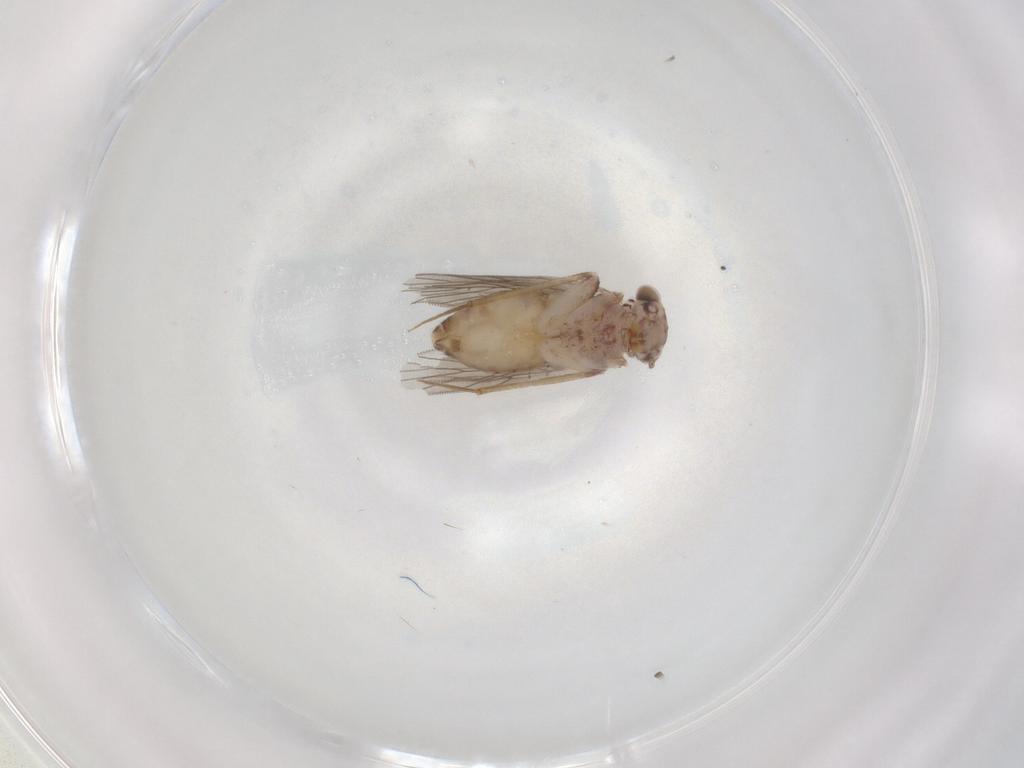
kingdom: Animalia
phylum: Arthropoda
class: Insecta
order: Psocodea
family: Lepidopsocidae
